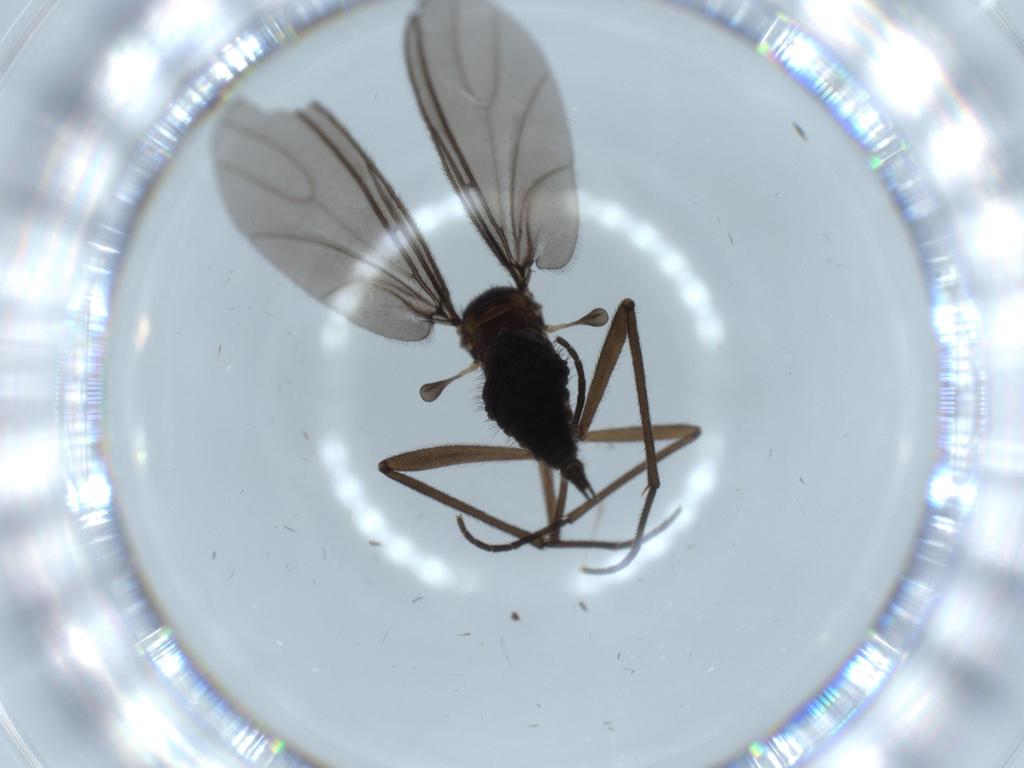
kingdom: Animalia
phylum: Arthropoda
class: Insecta
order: Diptera
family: Sciaridae
